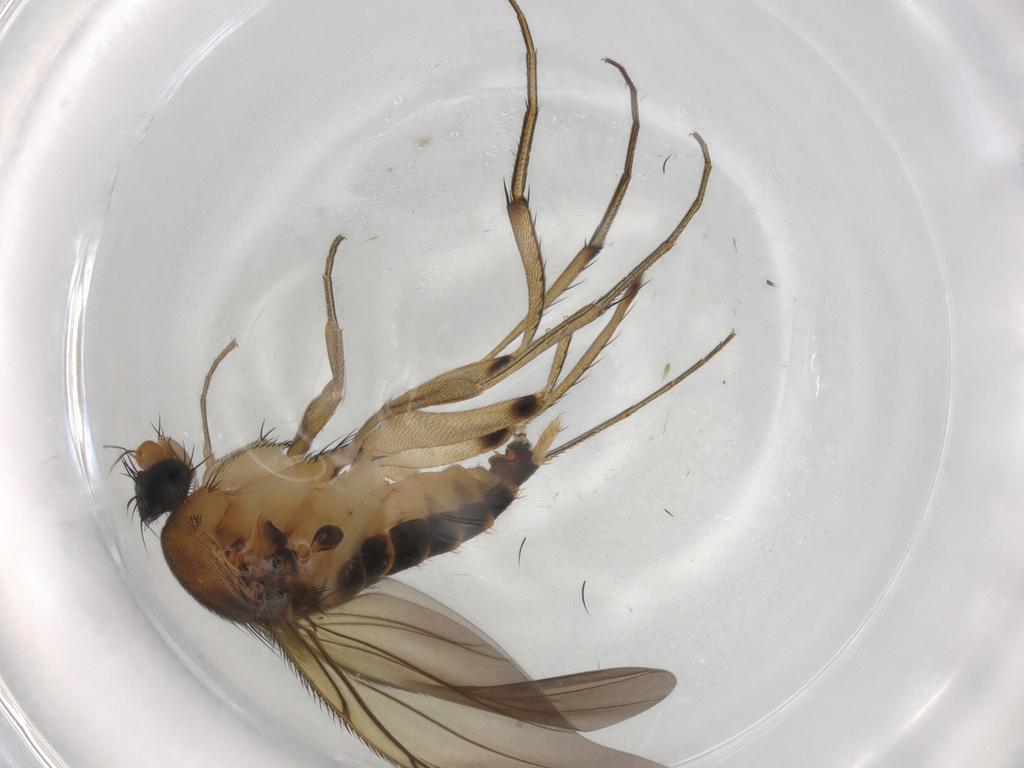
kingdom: Animalia
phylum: Arthropoda
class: Insecta
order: Diptera
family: Phoridae
